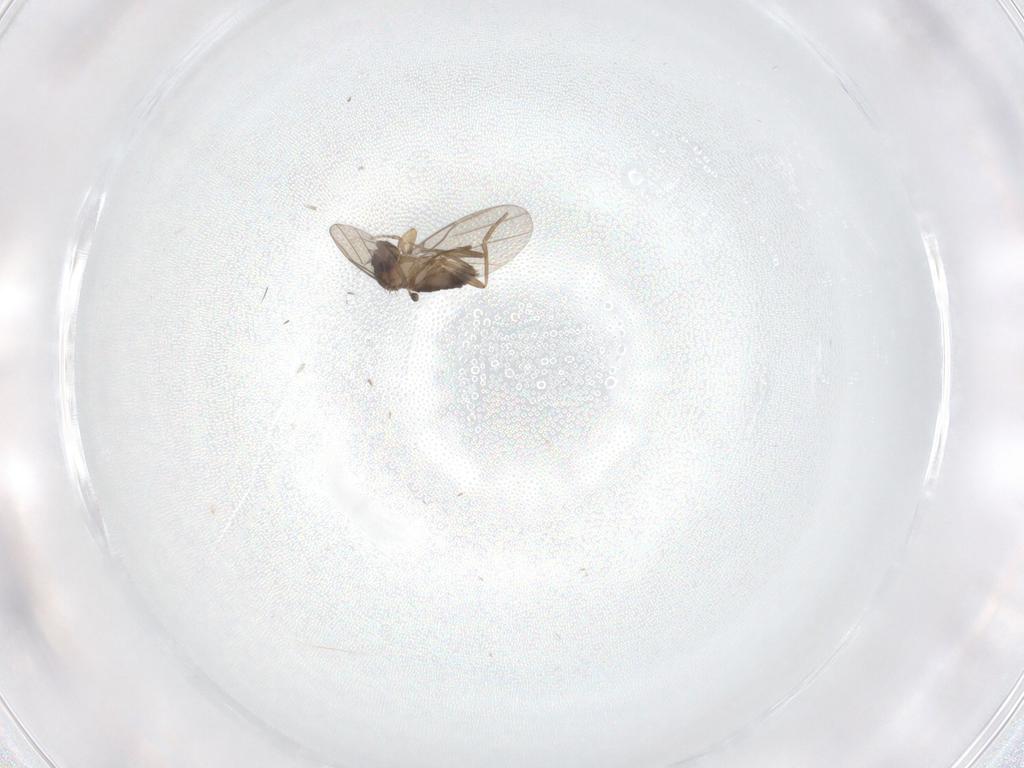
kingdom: Animalia
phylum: Arthropoda
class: Insecta
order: Diptera
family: Phoridae
